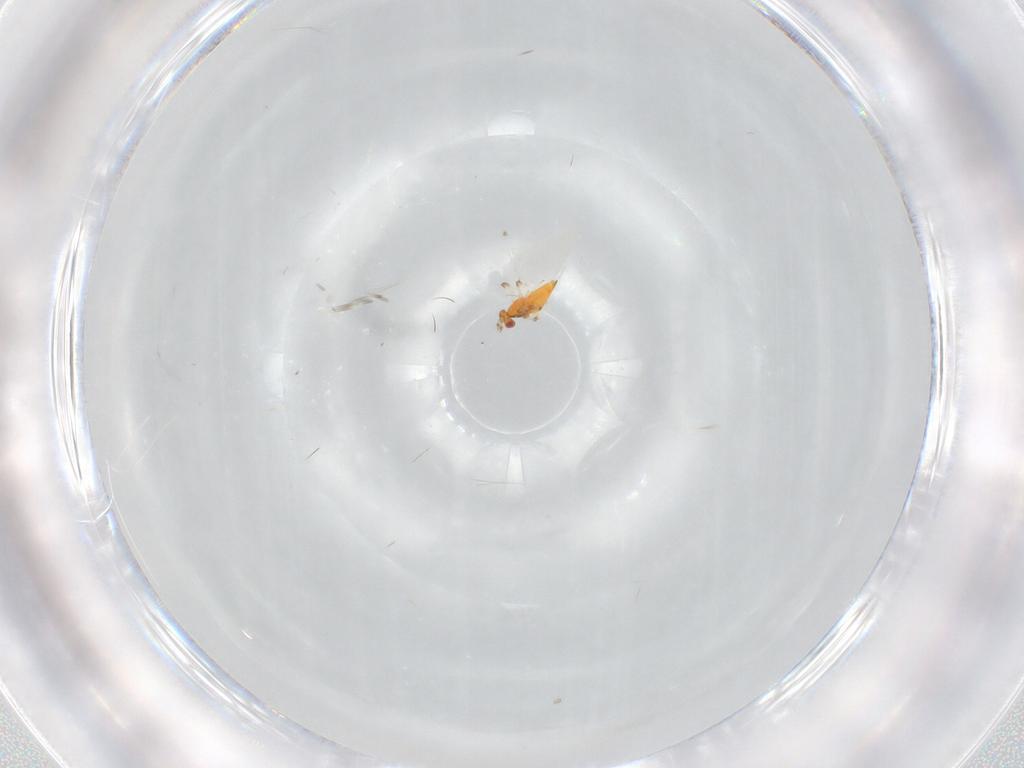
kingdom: Animalia
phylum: Arthropoda
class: Insecta
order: Hymenoptera
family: Trichogrammatidae
